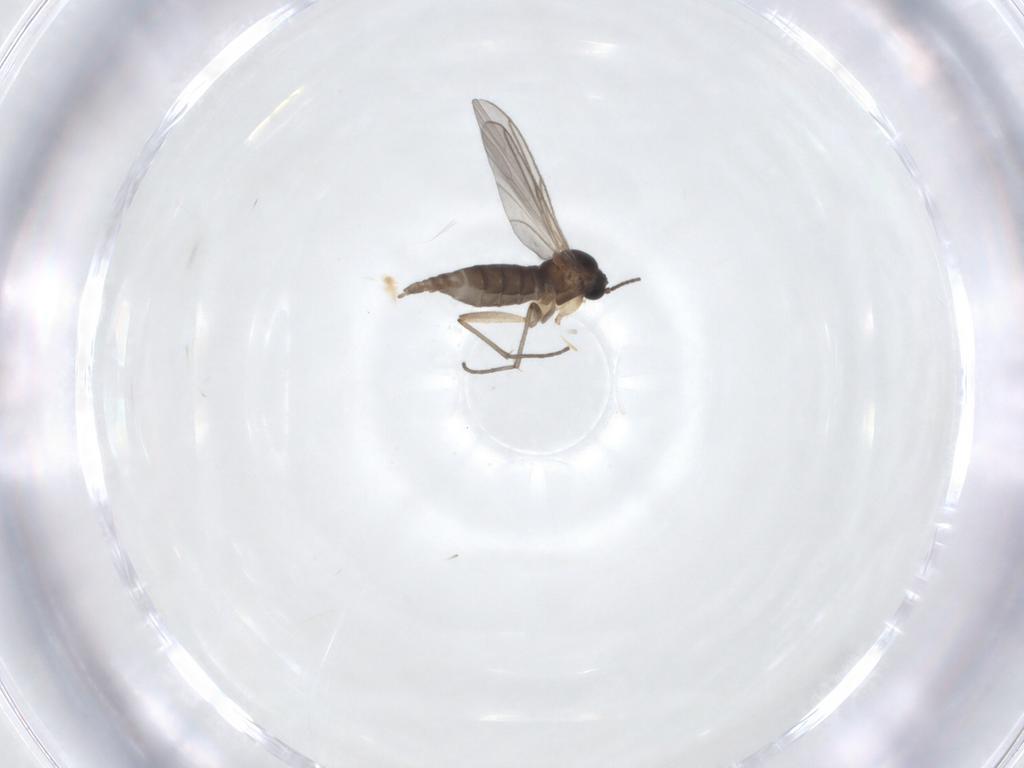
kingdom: Animalia
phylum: Arthropoda
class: Insecta
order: Diptera
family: Sciaridae
